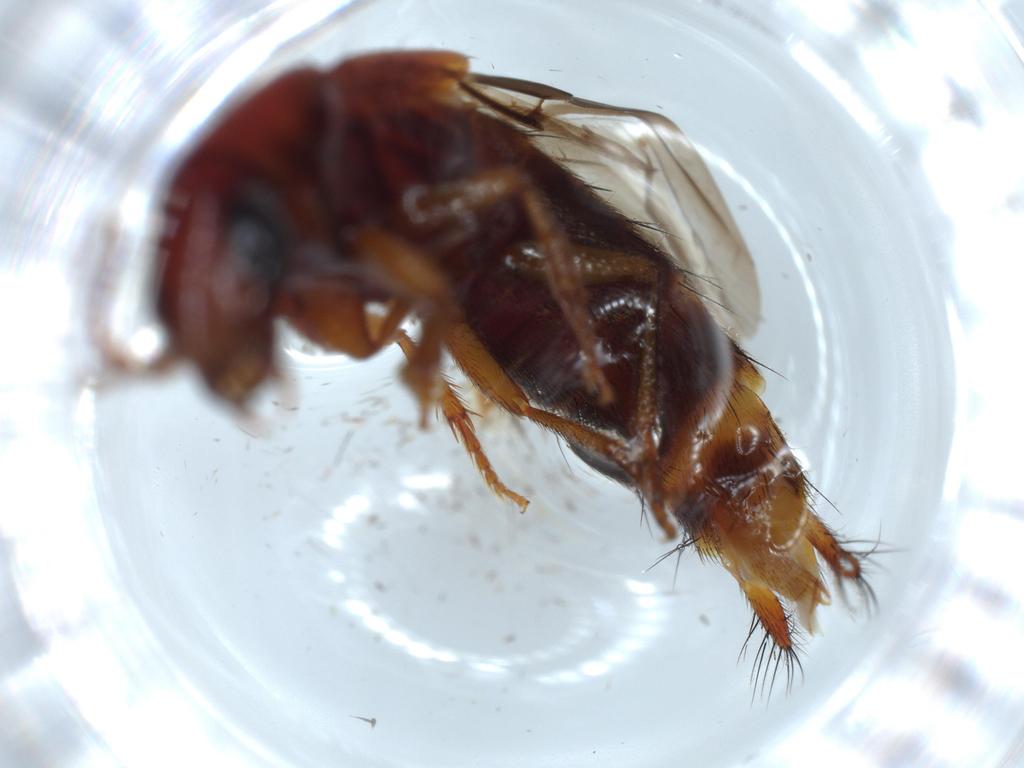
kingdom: Animalia
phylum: Arthropoda
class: Insecta
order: Coleoptera
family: Staphylinidae
